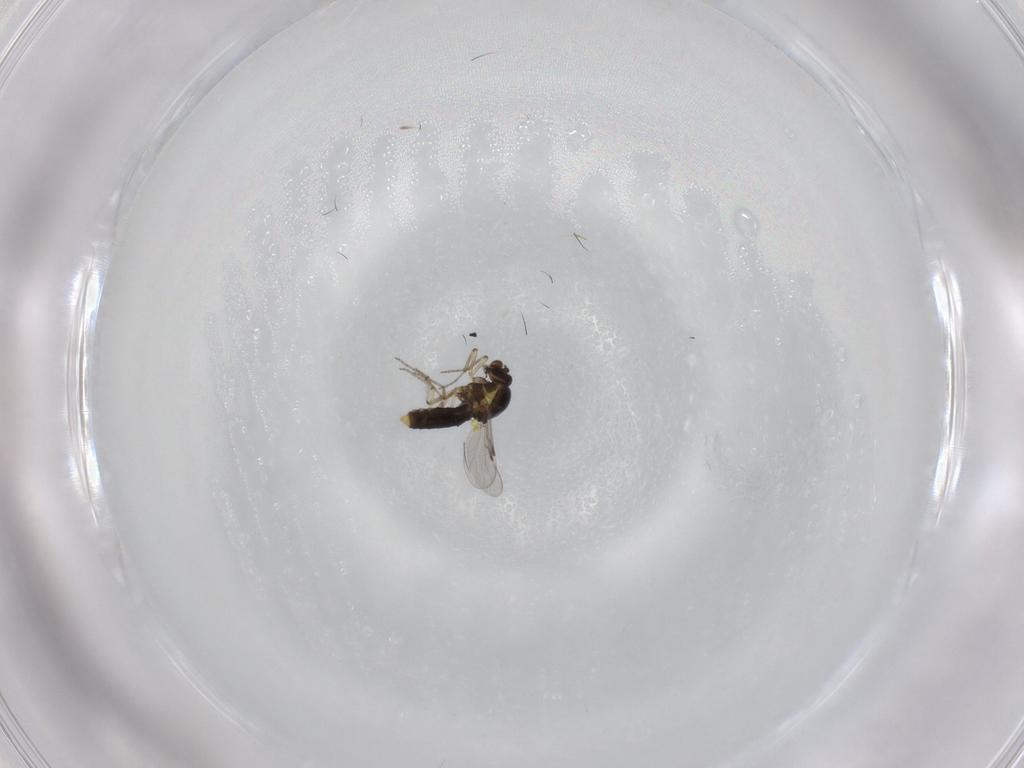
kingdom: Animalia
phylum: Arthropoda
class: Insecta
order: Diptera
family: Ceratopogonidae
